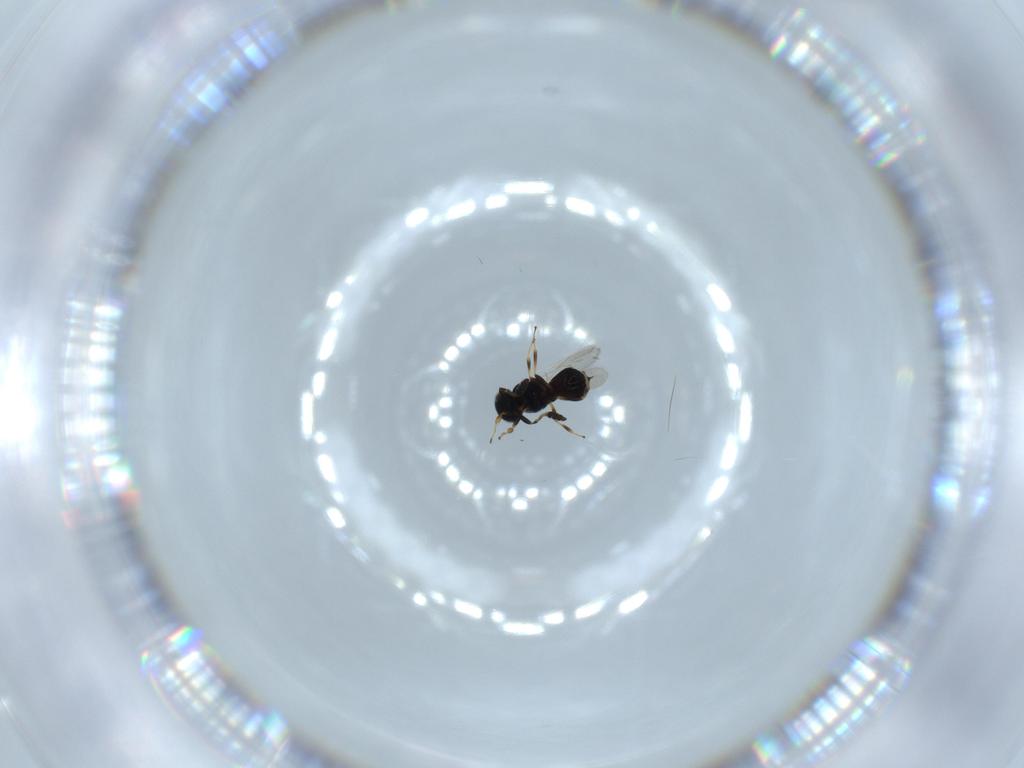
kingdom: Animalia
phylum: Arthropoda
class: Insecta
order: Hymenoptera
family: Scelionidae
